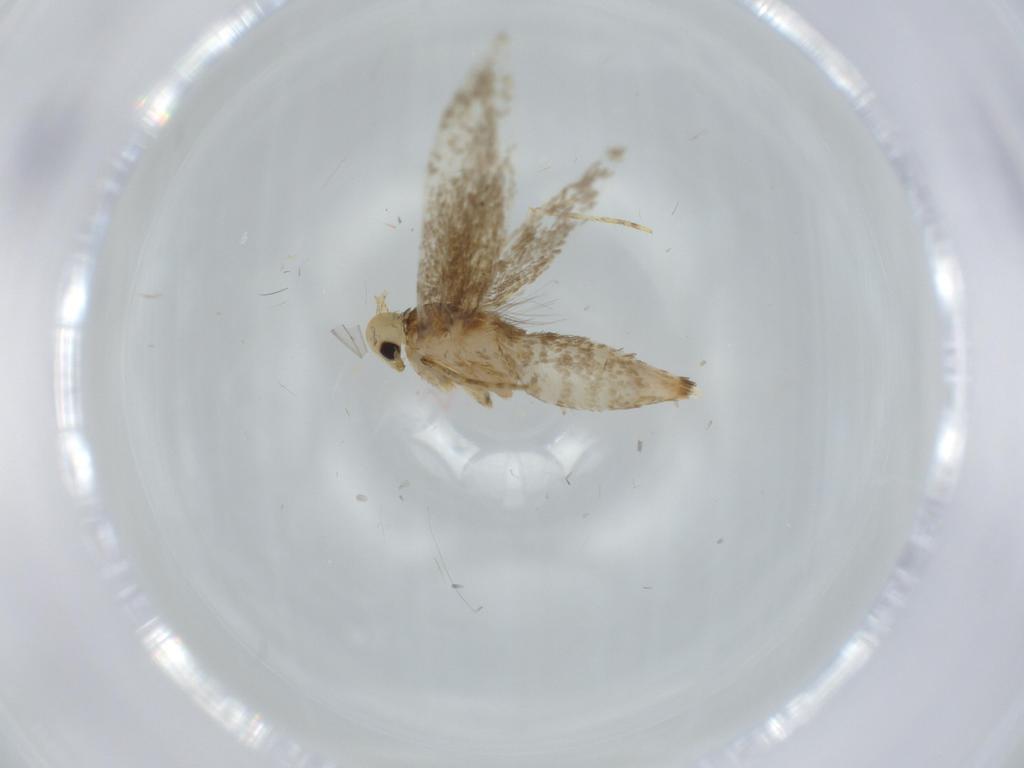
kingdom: Animalia
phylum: Arthropoda
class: Insecta
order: Lepidoptera
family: Tineidae
